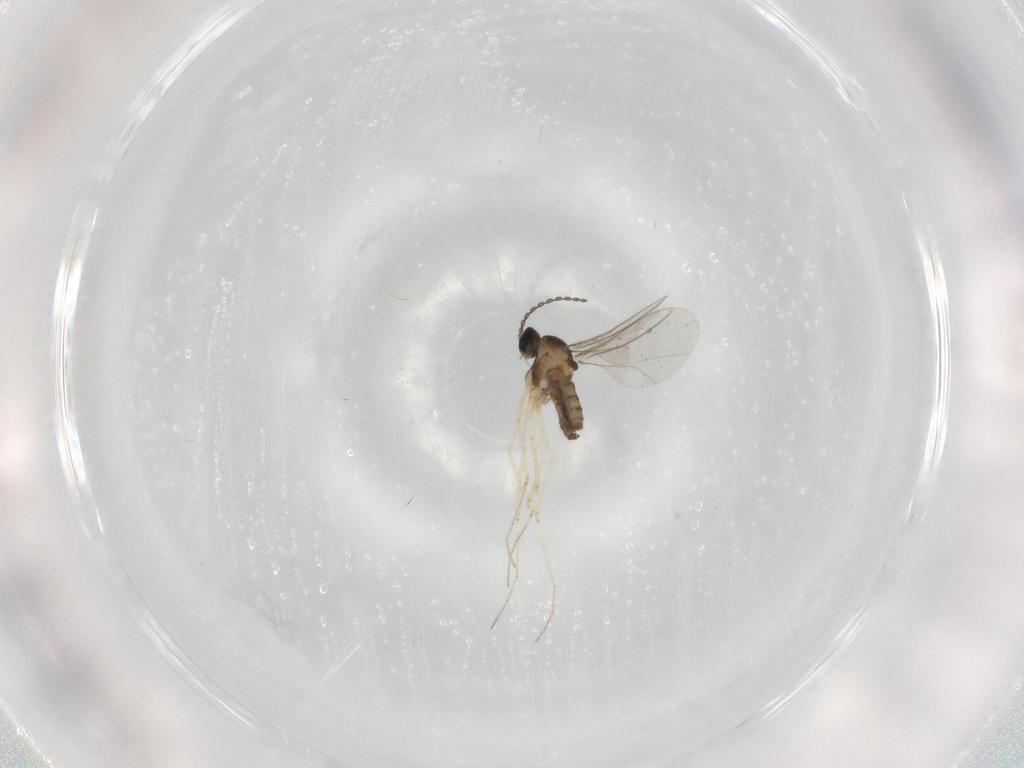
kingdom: Animalia
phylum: Arthropoda
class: Insecta
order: Diptera
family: Cecidomyiidae
